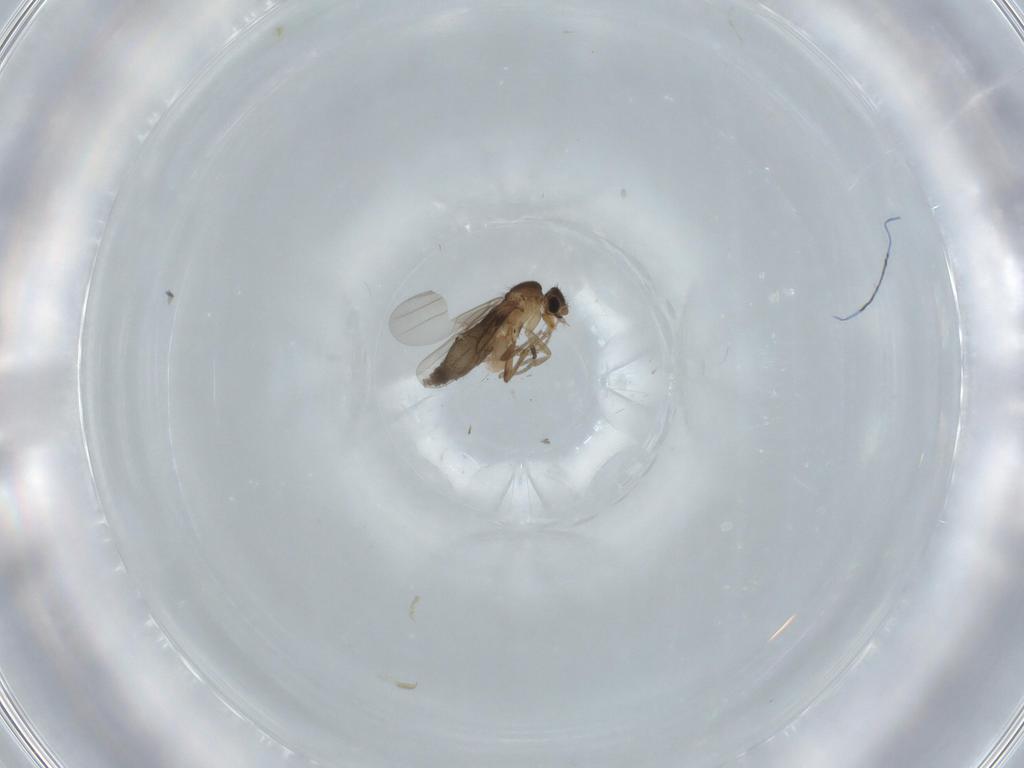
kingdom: Animalia
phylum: Arthropoda
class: Insecta
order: Diptera
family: Phoridae
